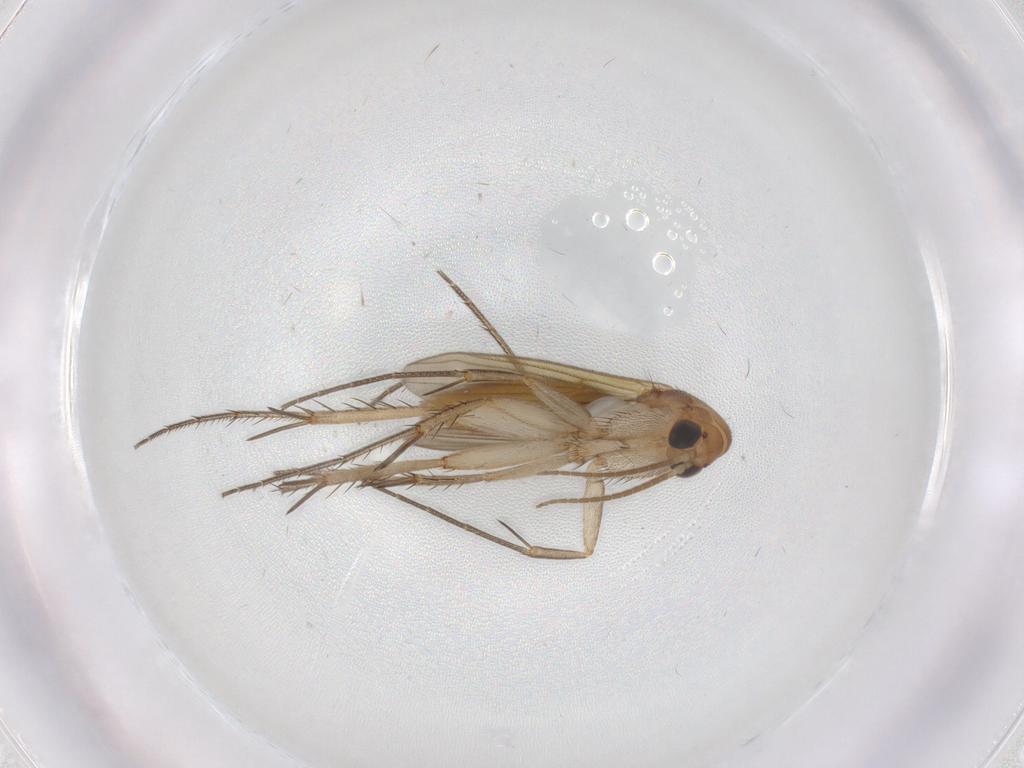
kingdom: Animalia
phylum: Arthropoda
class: Insecta
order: Diptera
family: Mycetophilidae
